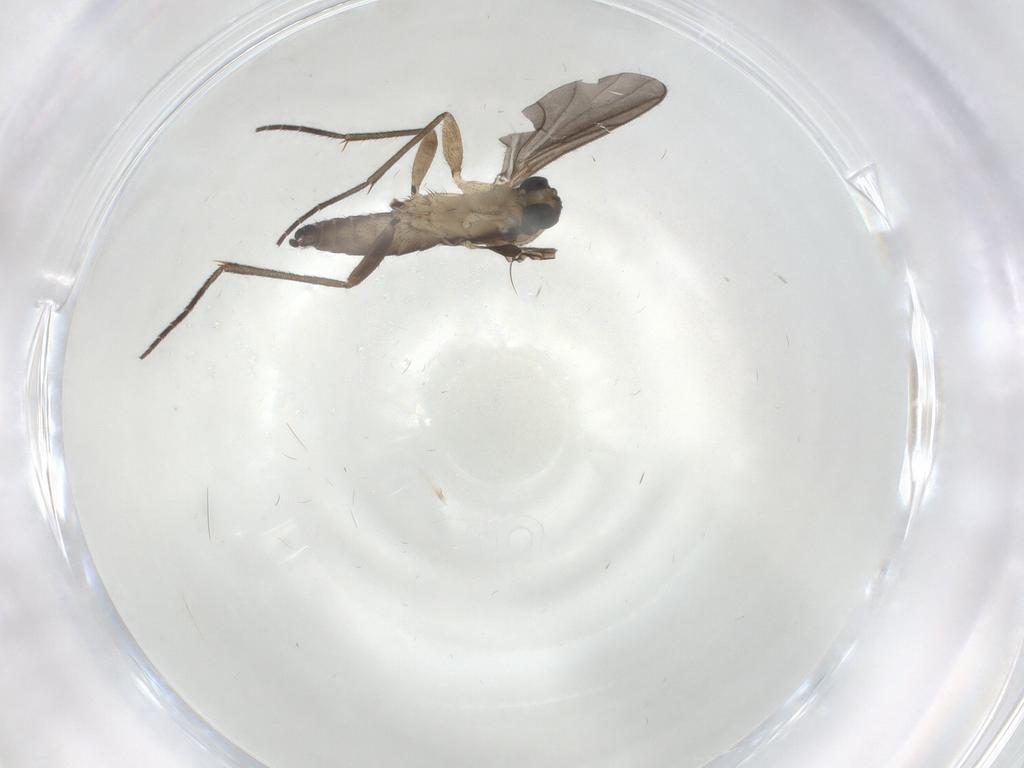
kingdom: Animalia
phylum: Arthropoda
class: Insecta
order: Diptera
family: Sciaridae
